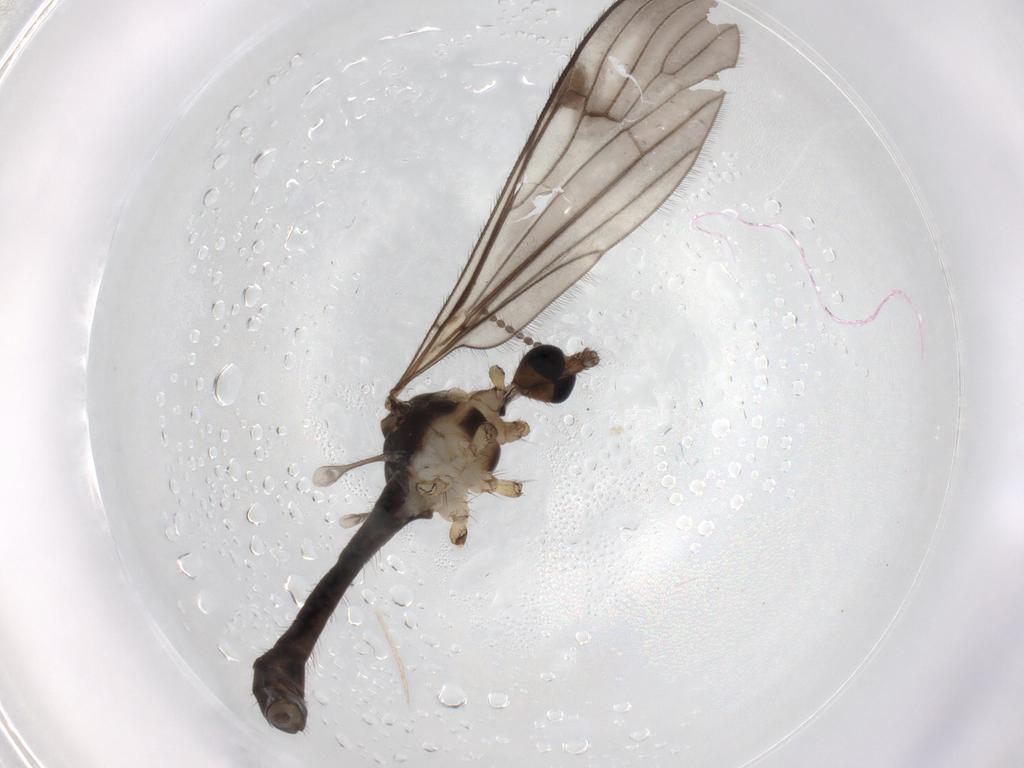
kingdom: Animalia
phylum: Arthropoda
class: Insecta
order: Diptera
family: Limoniidae
